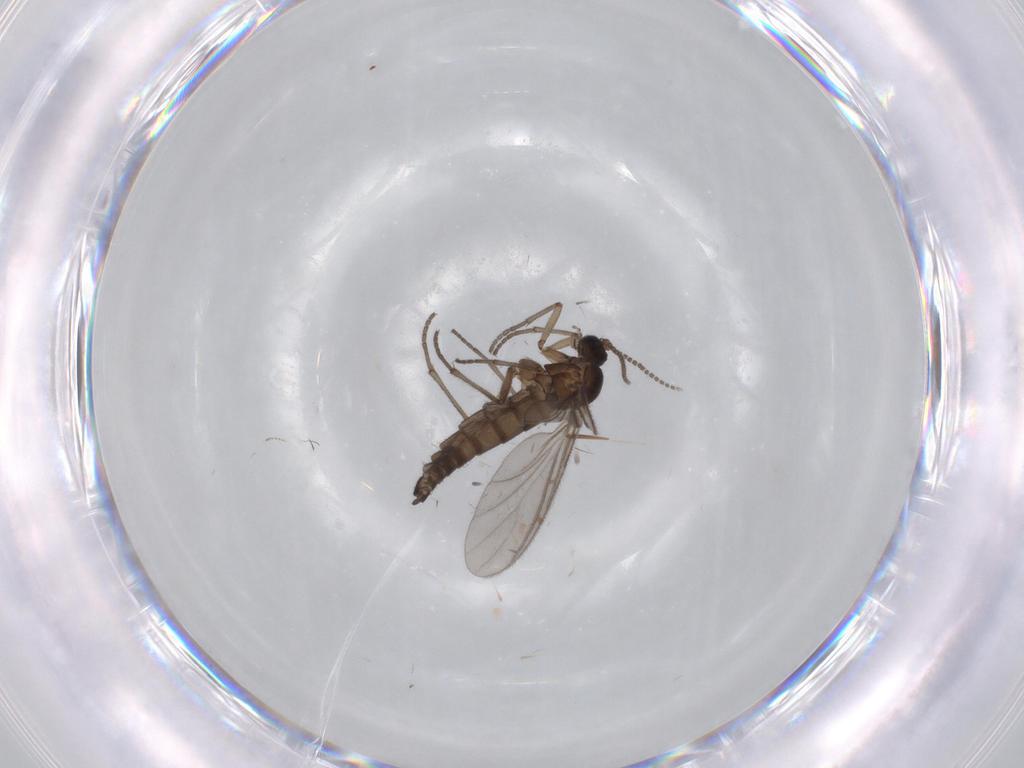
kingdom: Animalia
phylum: Arthropoda
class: Insecta
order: Diptera
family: Sciaridae
